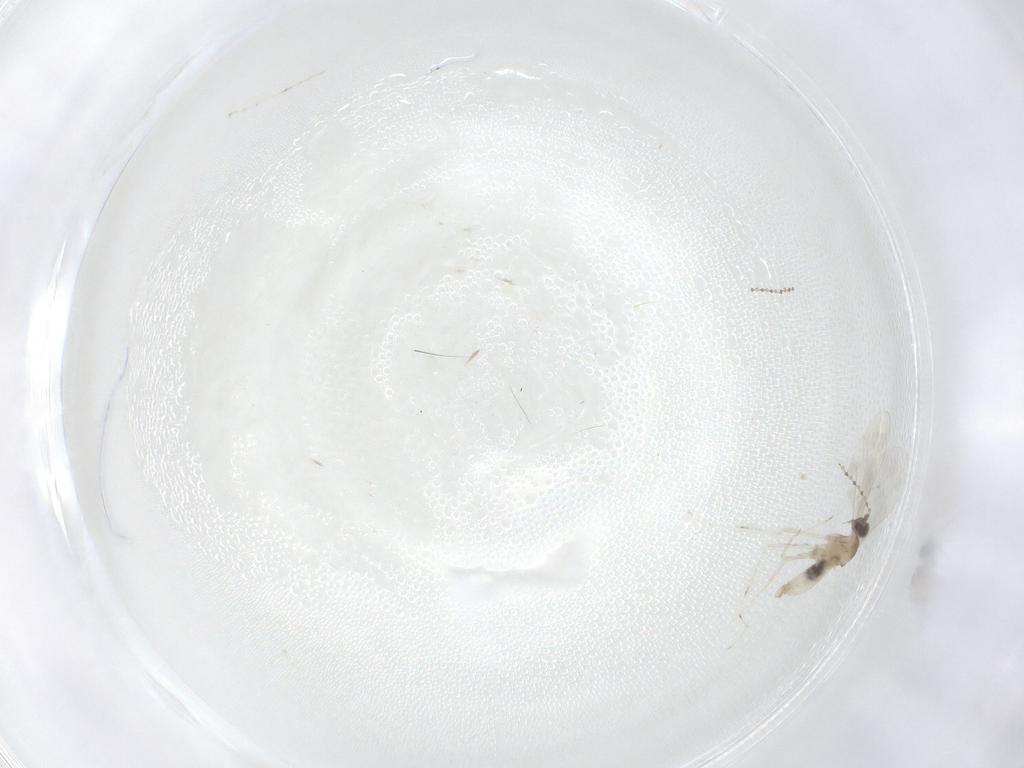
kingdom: Animalia
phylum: Arthropoda
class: Insecta
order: Diptera
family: Cecidomyiidae
